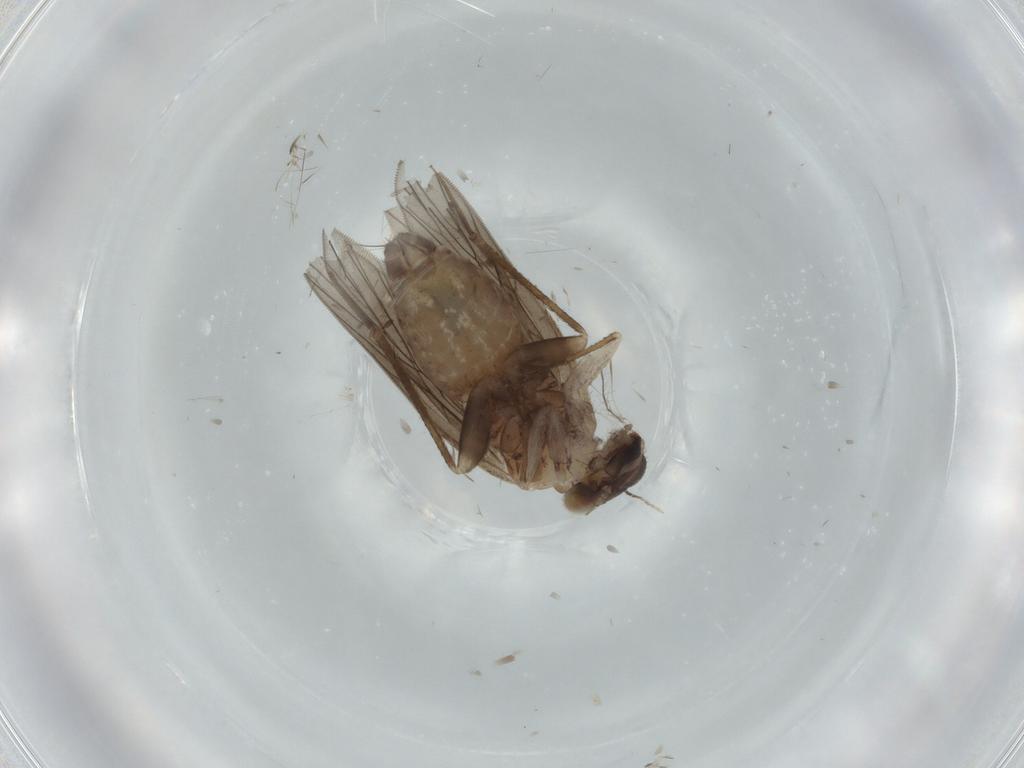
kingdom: Animalia
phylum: Arthropoda
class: Insecta
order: Psocodea
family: Lepidopsocidae
